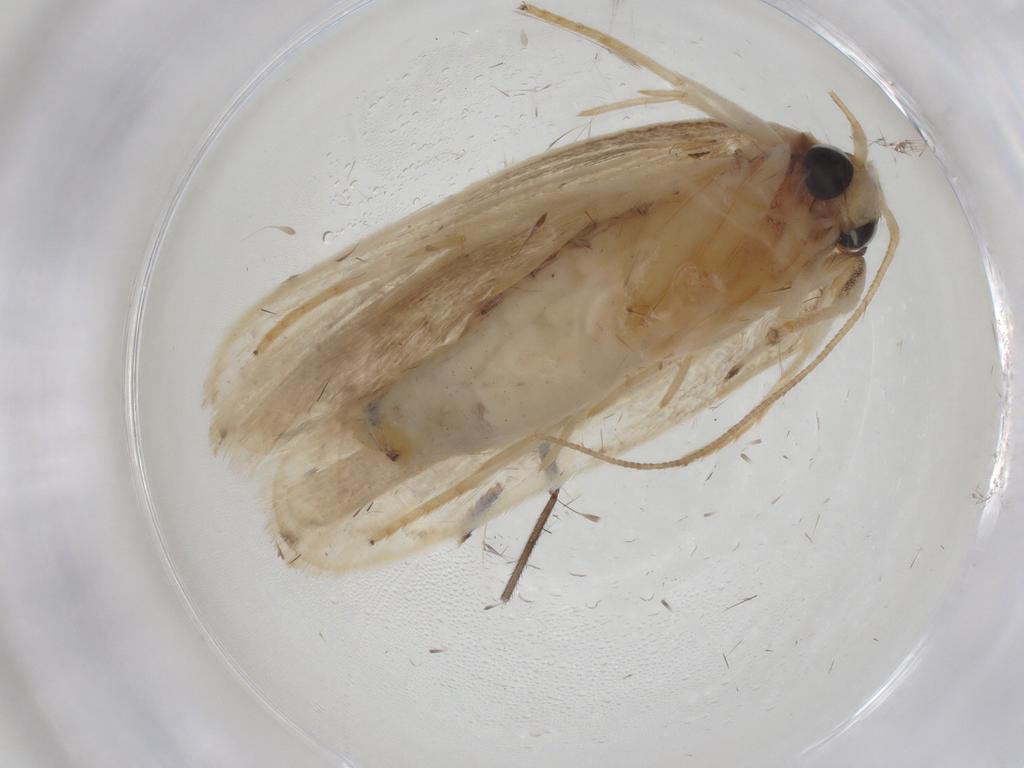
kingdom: Animalia
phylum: Arthropoda
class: Insecta
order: Lepidoptera
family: Depressariidae
